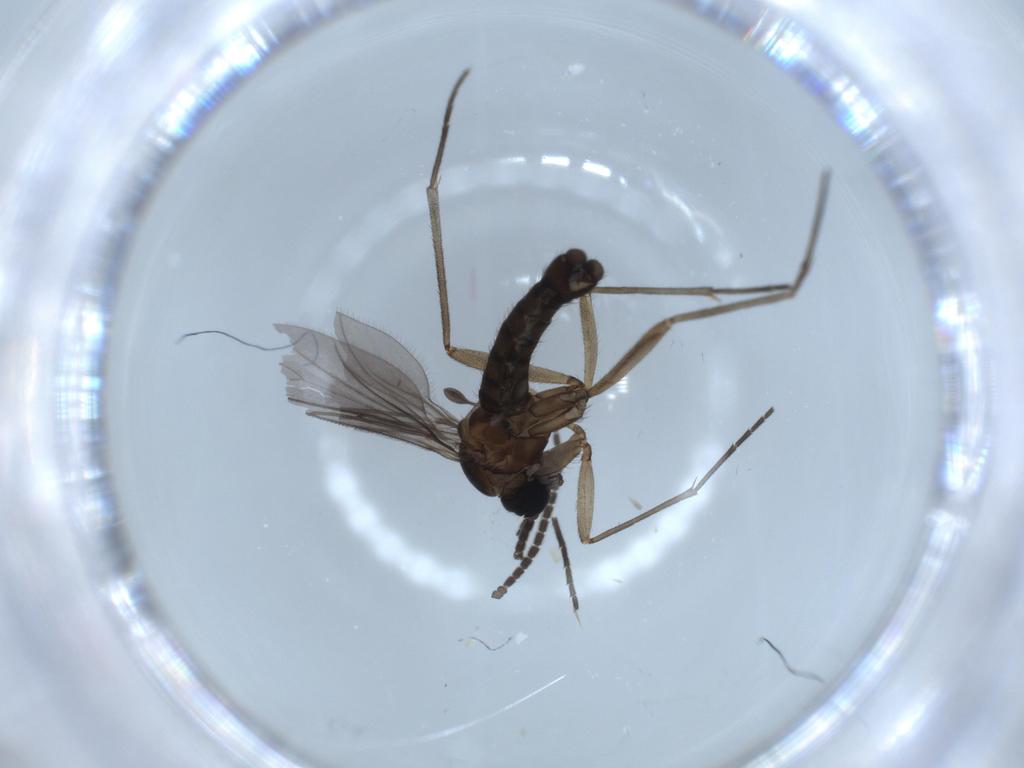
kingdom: Animalia
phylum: Arthropoda
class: Insecta
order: Diptera
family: Sciaridae
